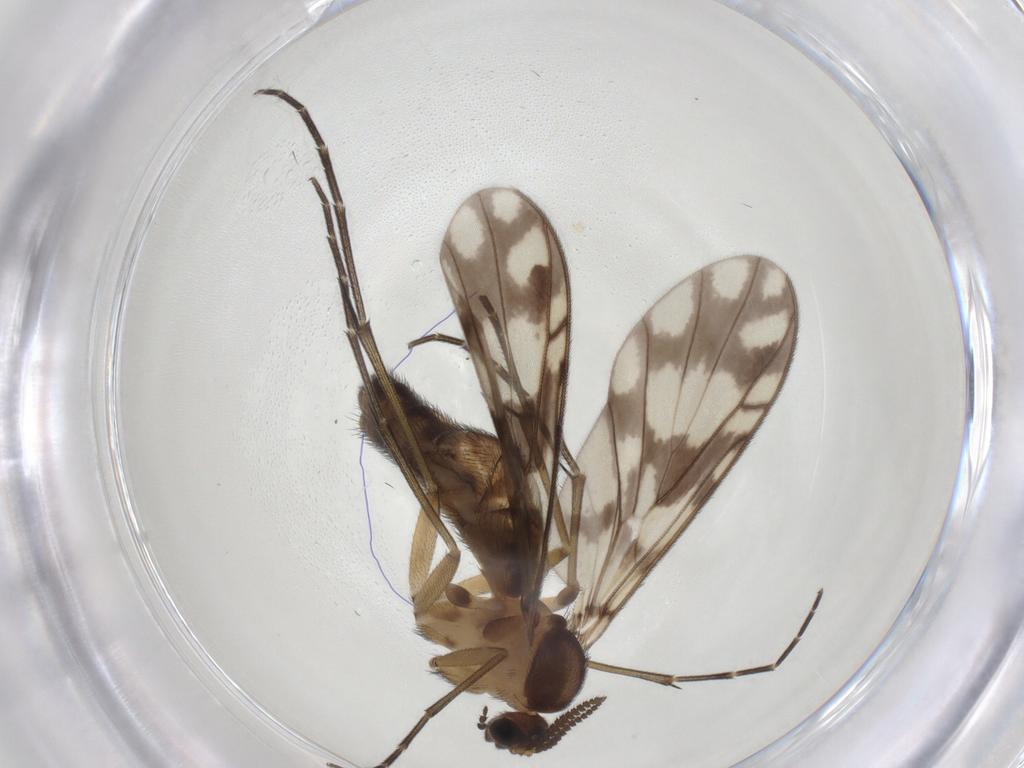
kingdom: Animalia
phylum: Arthropoda
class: Insecta
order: Diptera
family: Keroplatidae
